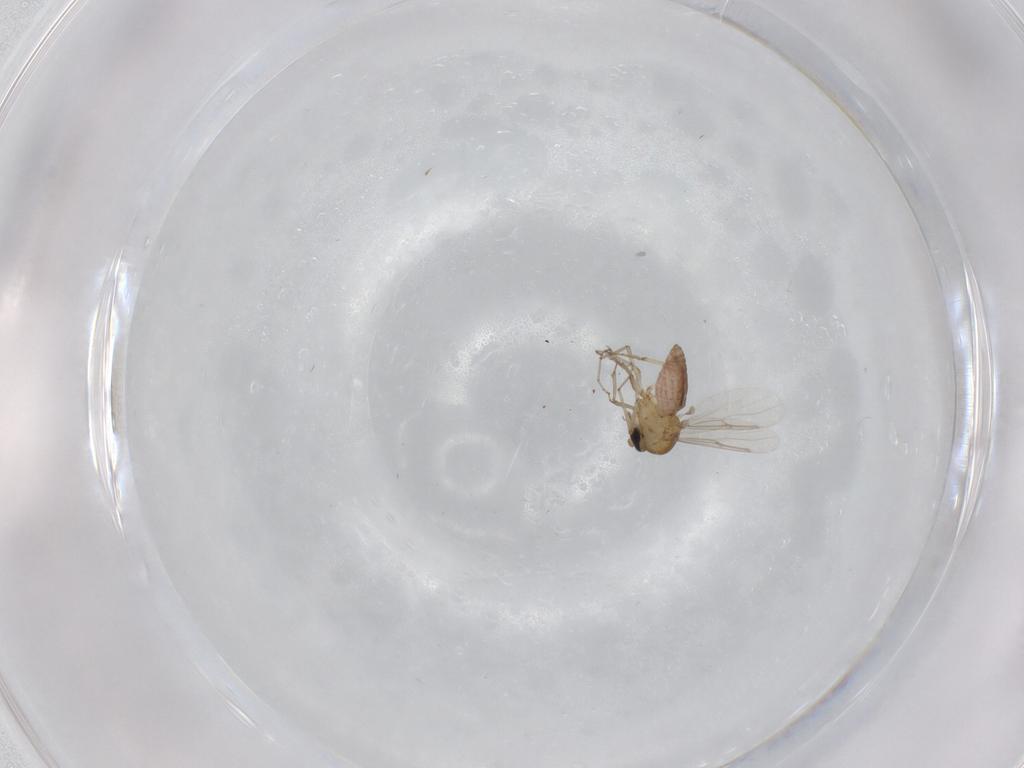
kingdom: Animalia
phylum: Arthropoda
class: Insecta
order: Diptera
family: Ceratopogonidae
